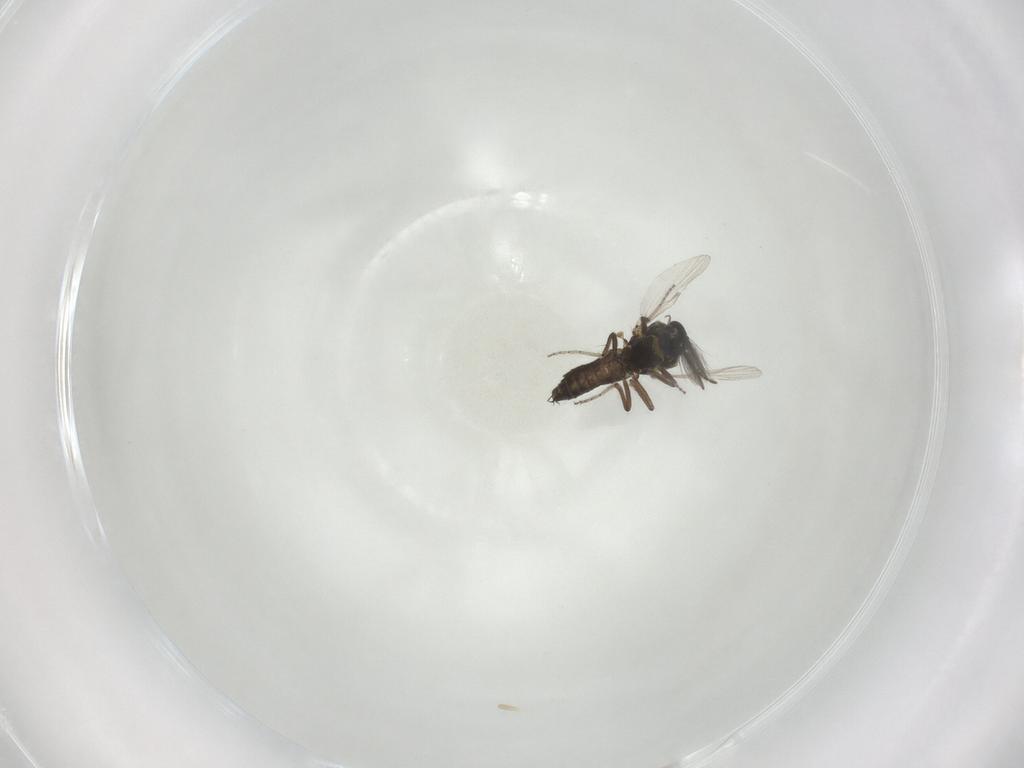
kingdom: Animalia
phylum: Arthropoda
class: Insecta
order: Diptera
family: Ceratopogonidae
